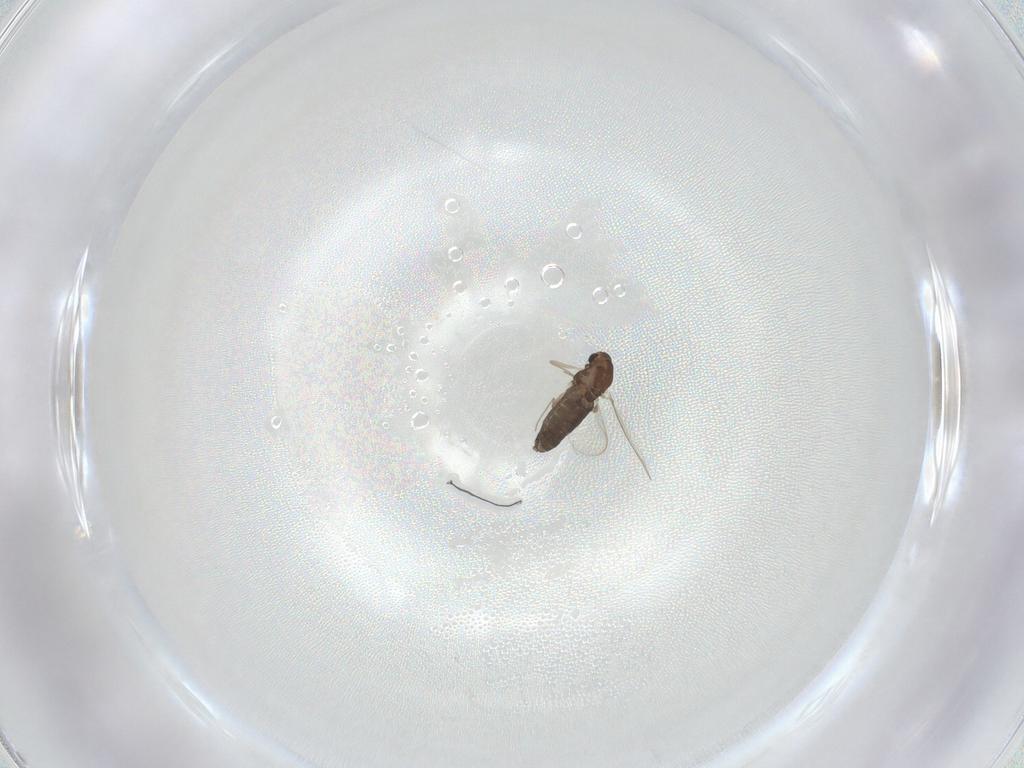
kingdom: Animalia
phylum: Arthropoda
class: Insecta
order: Diptera
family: Chironomidae
